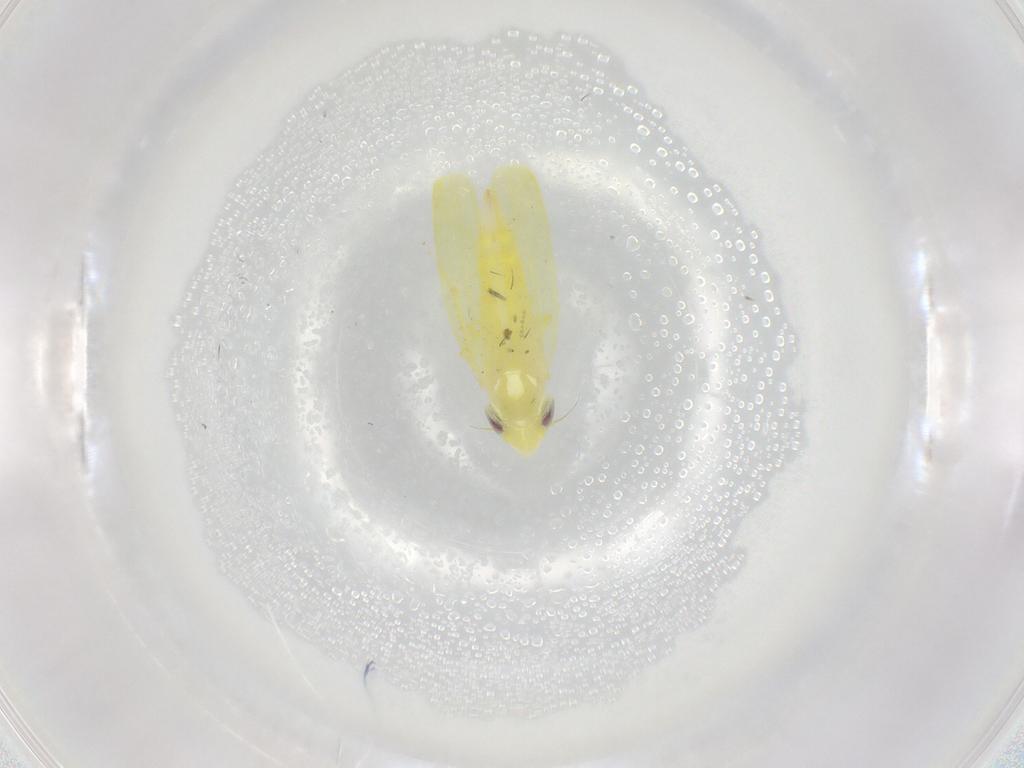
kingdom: Animalia
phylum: Arthropoda
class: Insecta
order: Hemiptera
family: Cicadellidae
